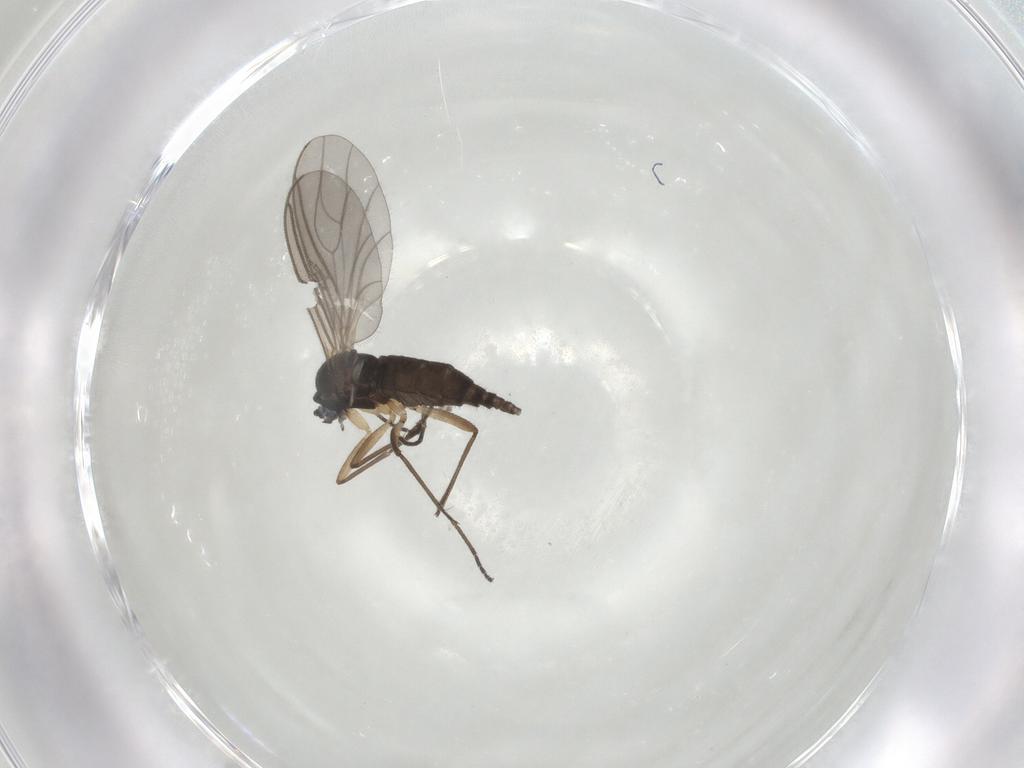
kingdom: Animalia
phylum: Arthropoda
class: Insecta
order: Diptera
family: Sciaridae
